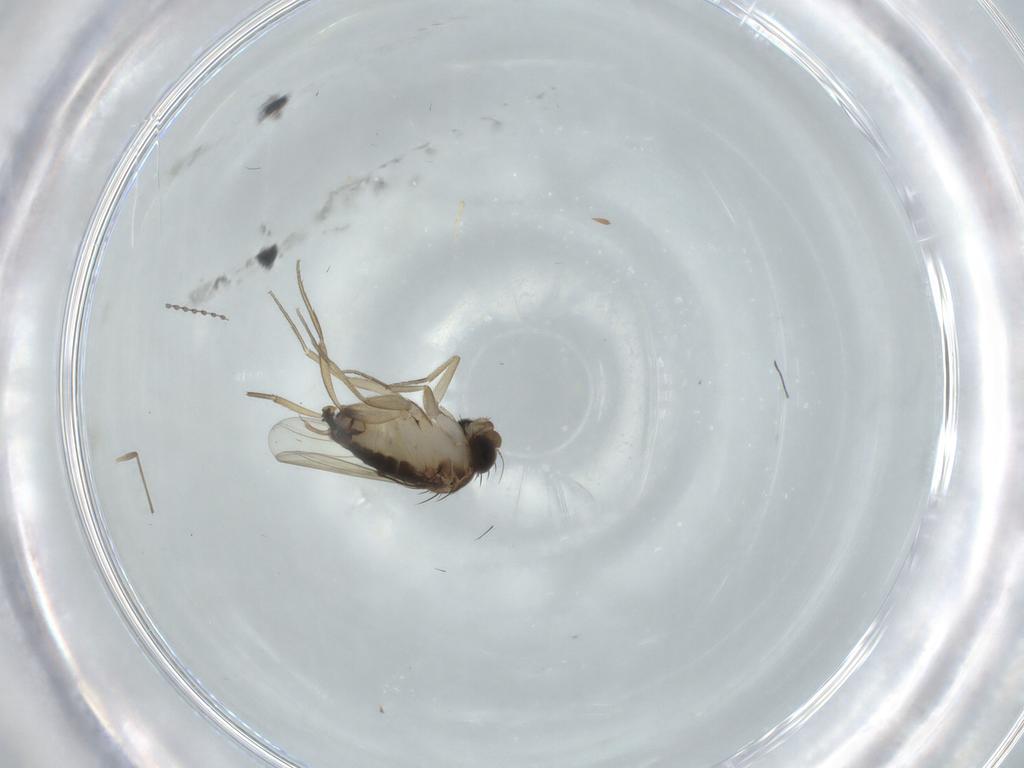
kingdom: Animalia
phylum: Arthropoda
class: Insecta
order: Diptera
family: Phoridae
